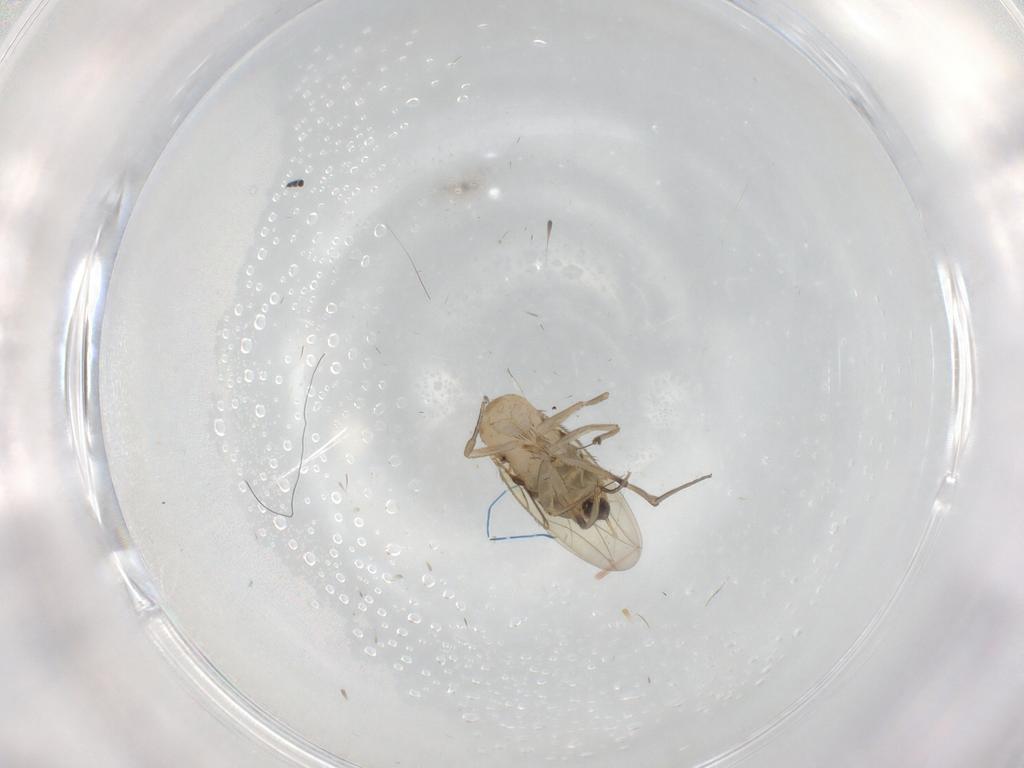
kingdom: Animalia
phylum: Arthropoda
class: Insecta
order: Diptera
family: Phoridae
